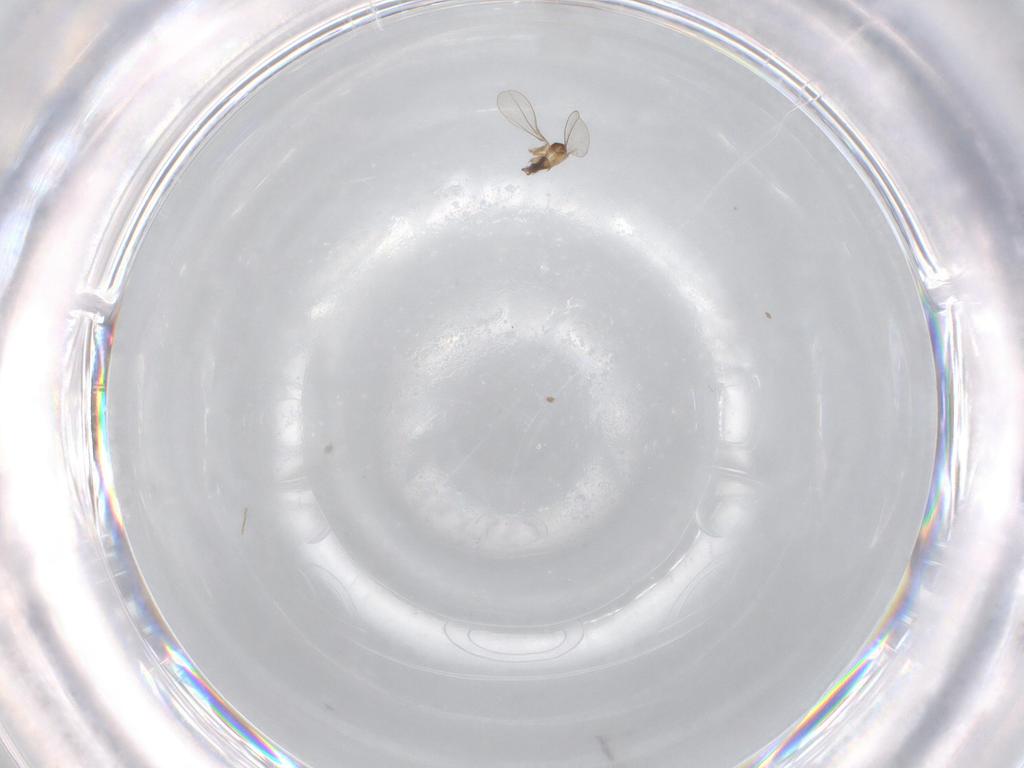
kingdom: Animalia
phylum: Arthropoda
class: Insecta
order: Diptera
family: Cecidomyiidae
